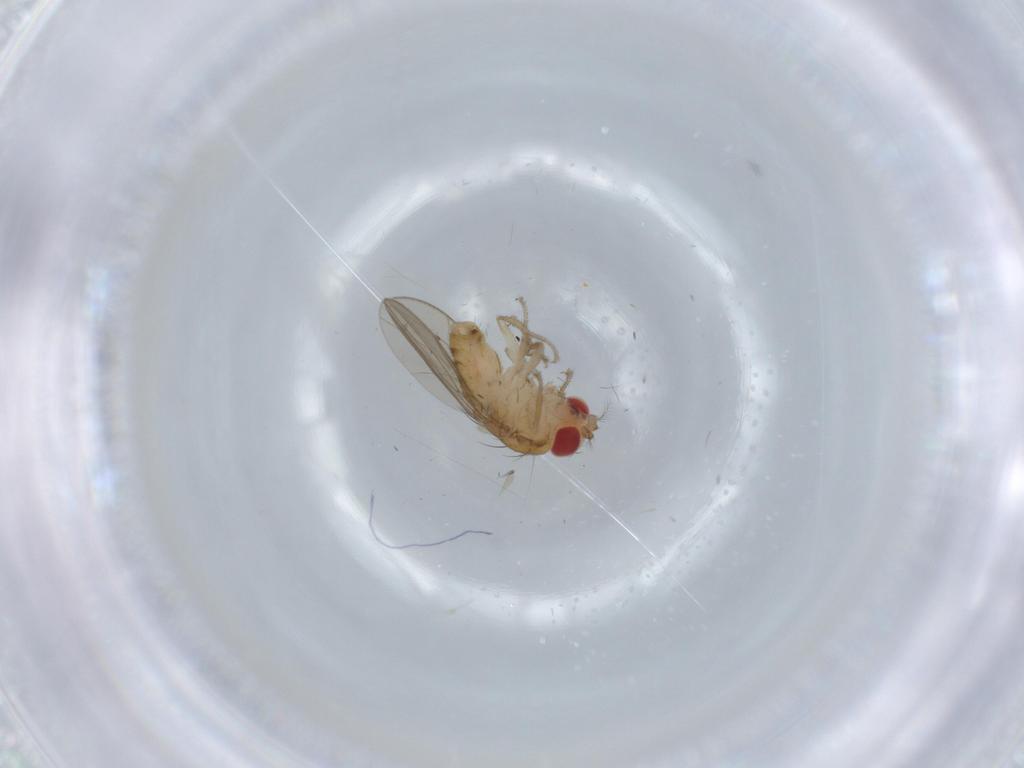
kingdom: Animalia
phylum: Arthropoda
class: Insecta
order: Diptera
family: Drosophilidae
